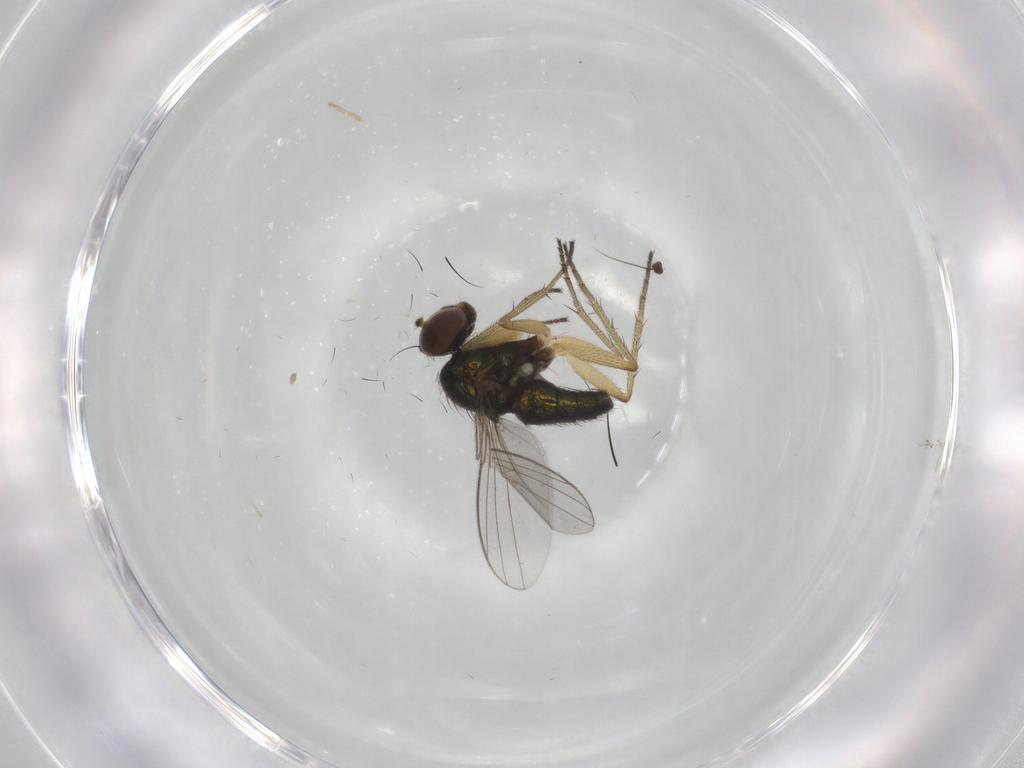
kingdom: Animalia
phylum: Arthropoda
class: Insecta
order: Diptera
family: Dolichopodidae
